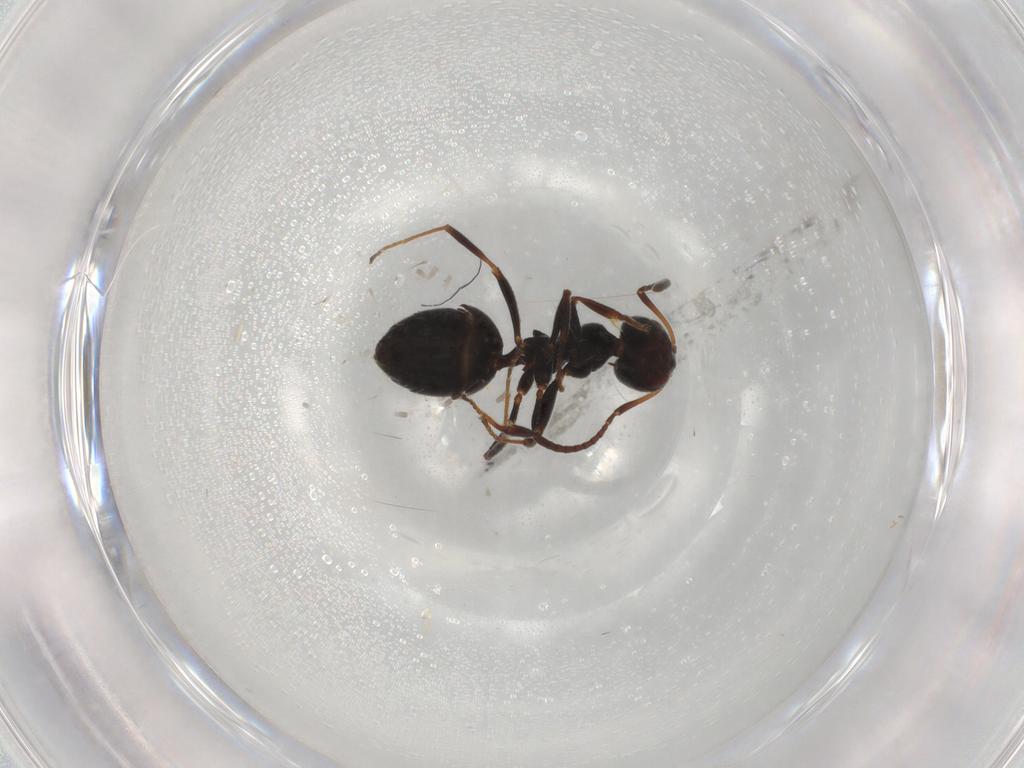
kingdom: Animalia
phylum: Arthropoda
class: Insecta
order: Hymenoptera
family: Formicidae
